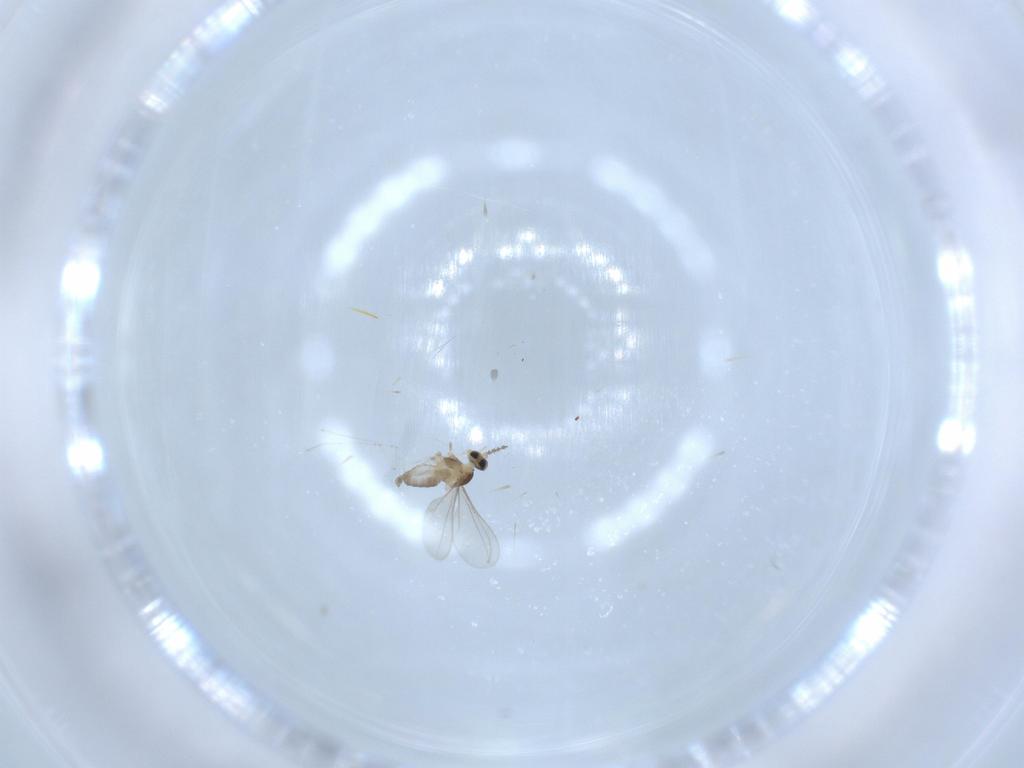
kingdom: Animalia
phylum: Arthropoda
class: Insecta
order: Diptera
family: Cecidomyiidae
